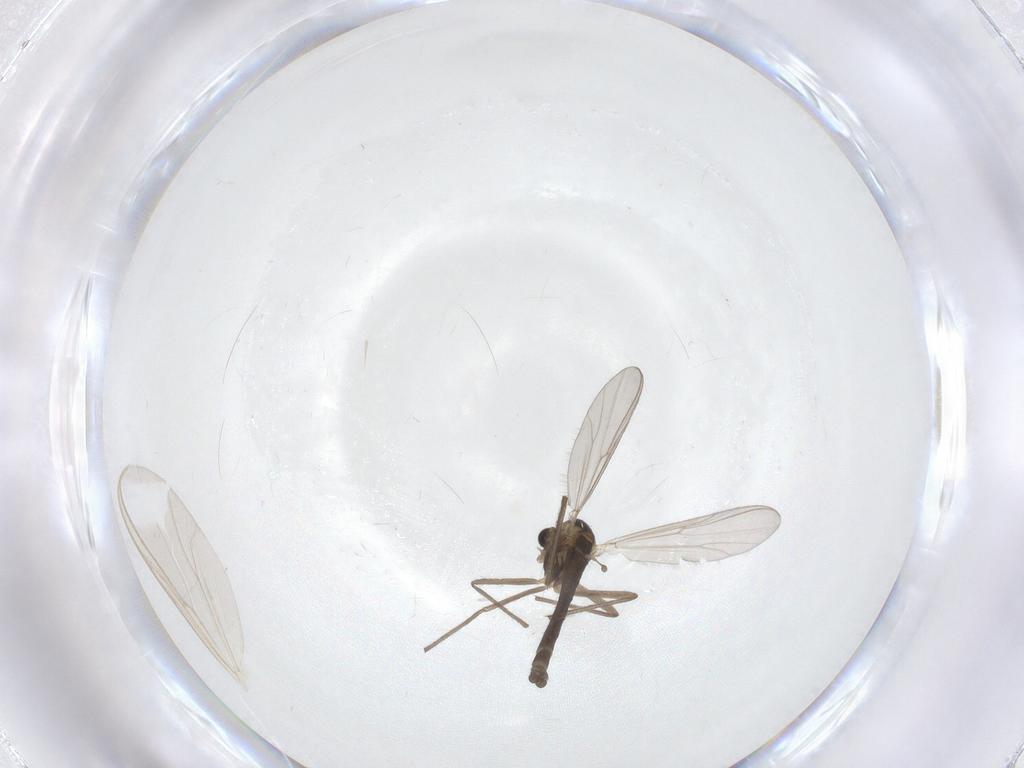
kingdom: Animalia
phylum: Arthropoda
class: Insecta
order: Diptera
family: Chironomidae
